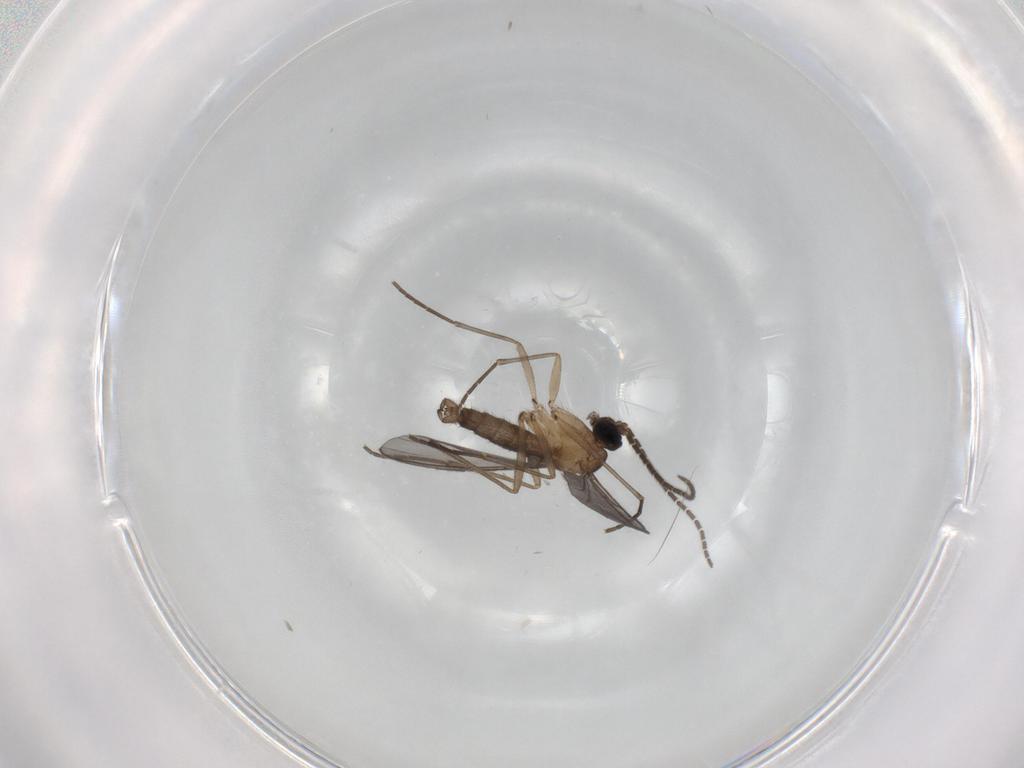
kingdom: Animalia
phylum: Arthropoda
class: Insecta
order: Diptera
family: Sciaridae
